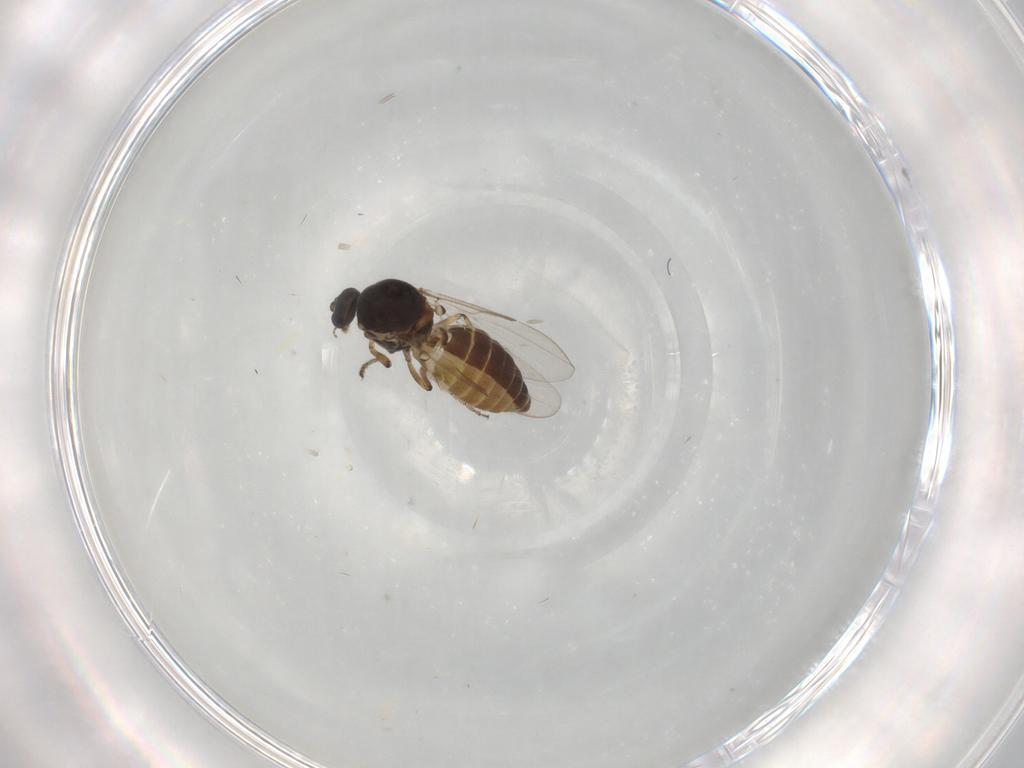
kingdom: Animalia
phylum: Arthropoda
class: Insecta
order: Diptera
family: Ceratopogonidae
